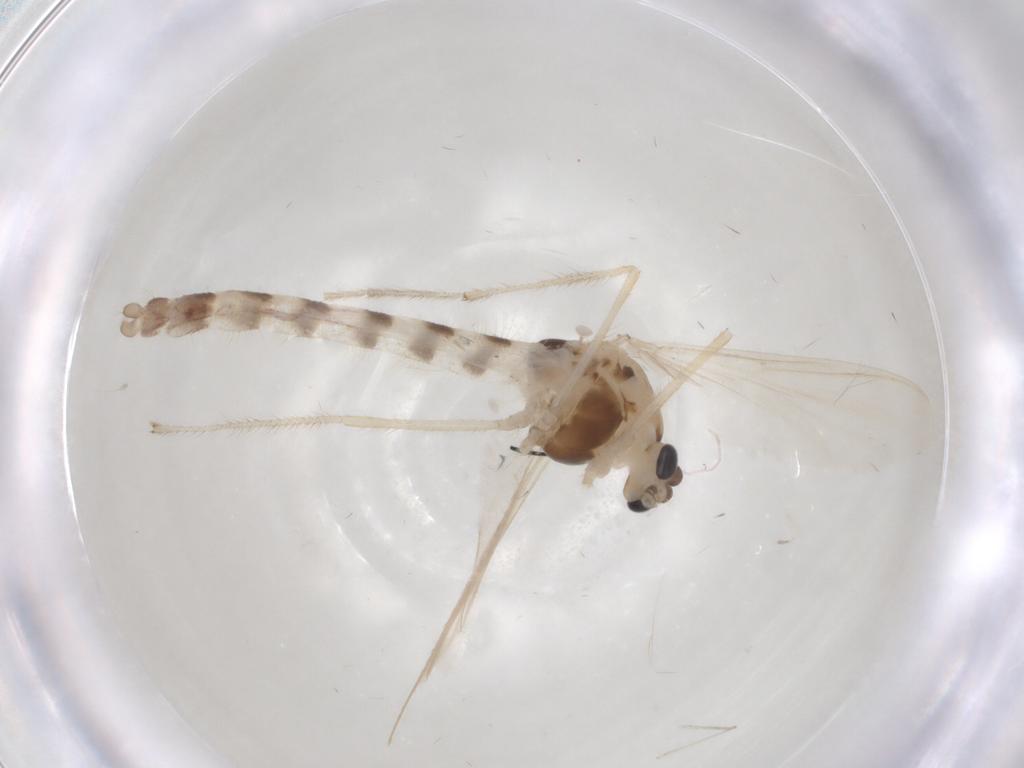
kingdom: Animalia
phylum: Arthropoda
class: Insecta
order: Diptera
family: Chironomidae
